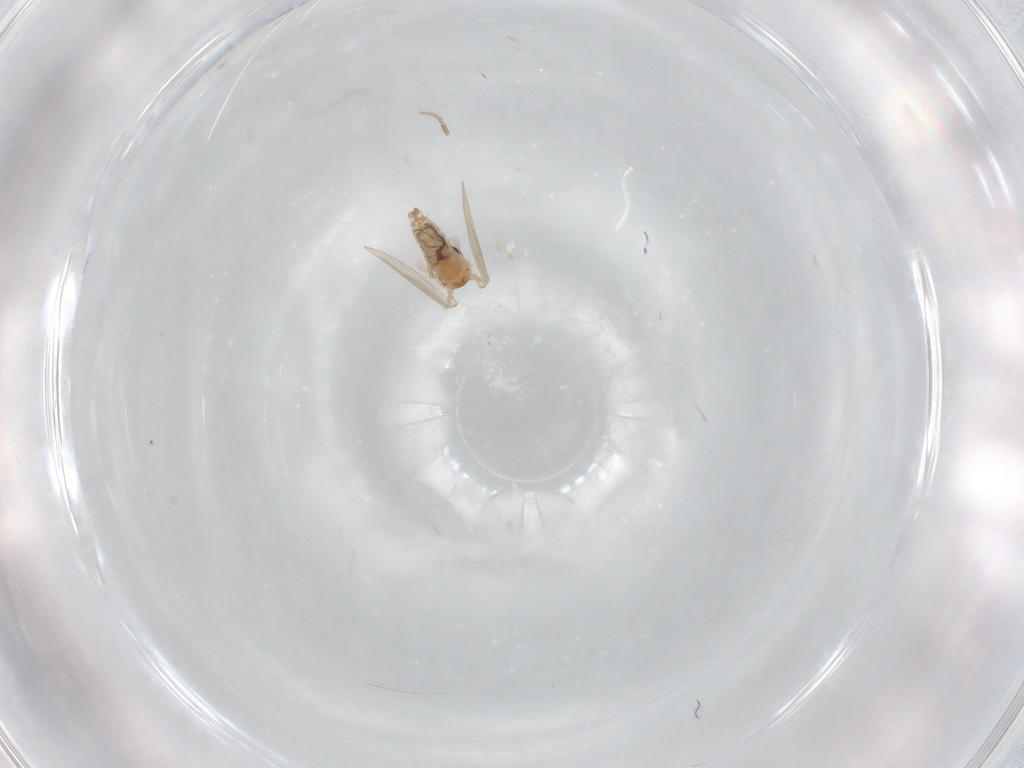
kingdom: Animalia
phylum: Arthropoda
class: Insecta
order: Diptera
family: Cecidomyiidae
